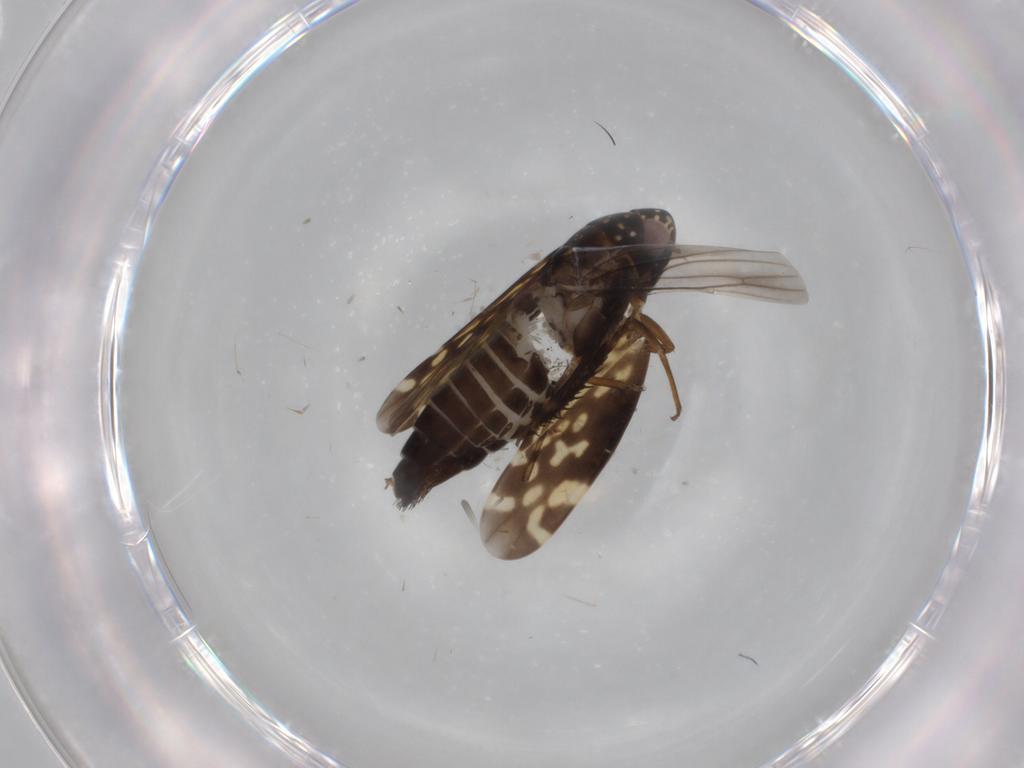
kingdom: Animalia
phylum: Arthropoda
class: Insecta
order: Hemiptera
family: Cicadellidae
